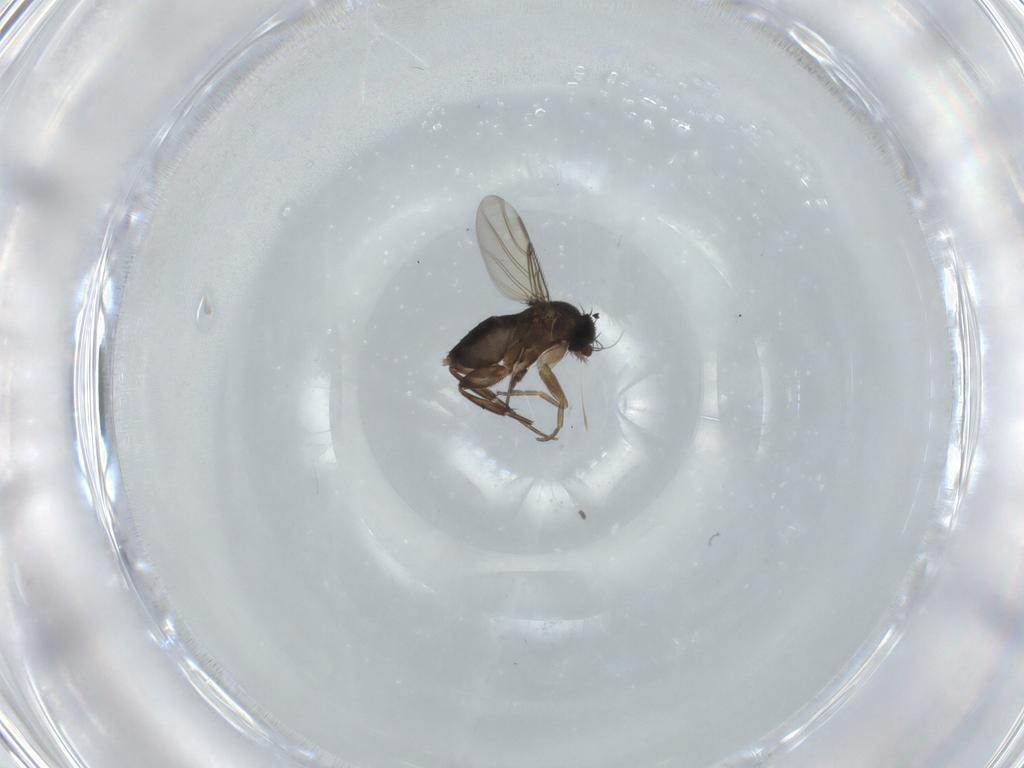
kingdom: Animalia
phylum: Arthropoda
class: Insecta
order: Diptera
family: Phoridae
